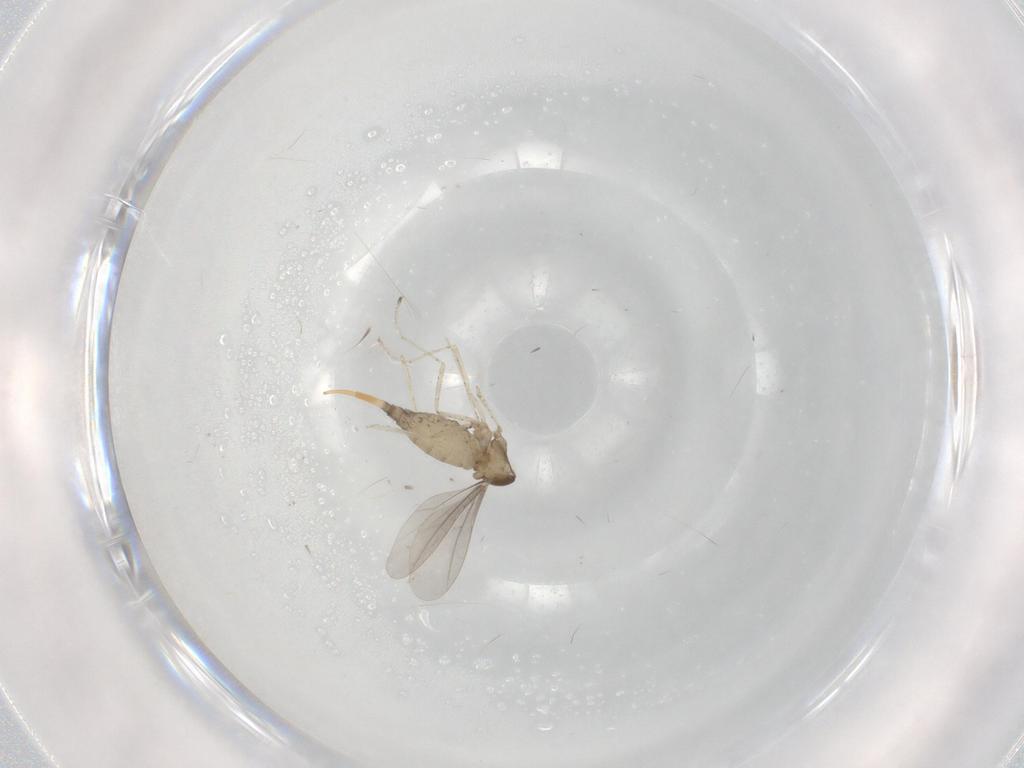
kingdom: Animalia
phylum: Arthropoda
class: Insecta
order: Diptera
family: Cecidomyiidae
